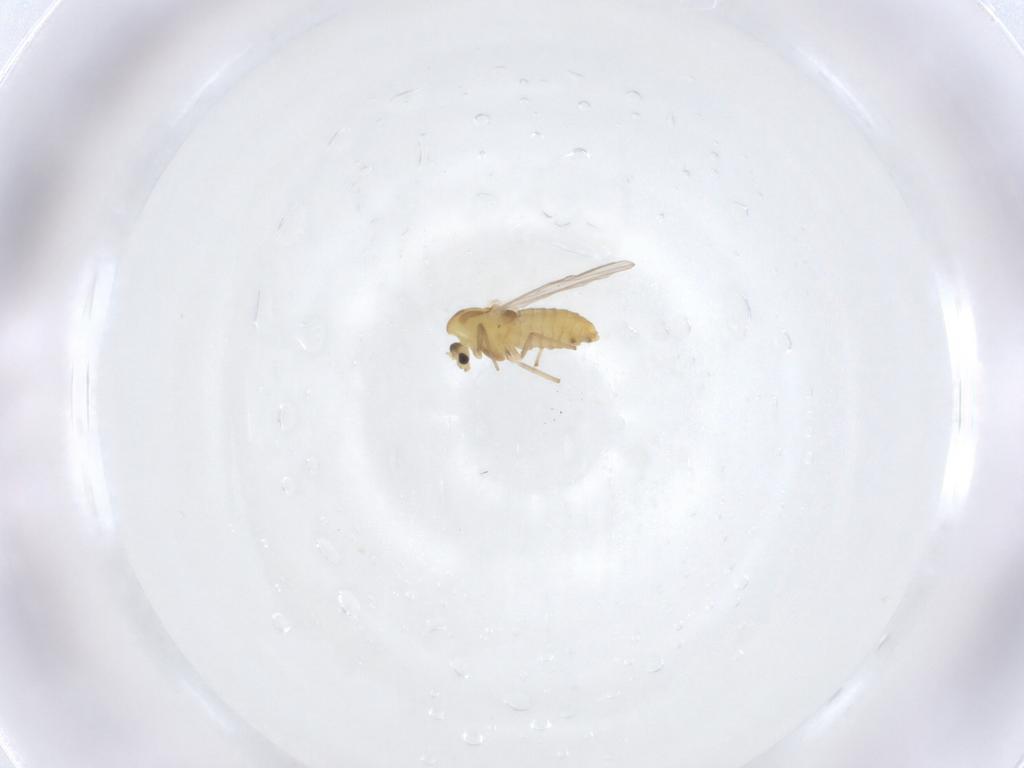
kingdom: Animalia
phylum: Arthropoda
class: Insecta
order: Diptera
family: Chironomidae
